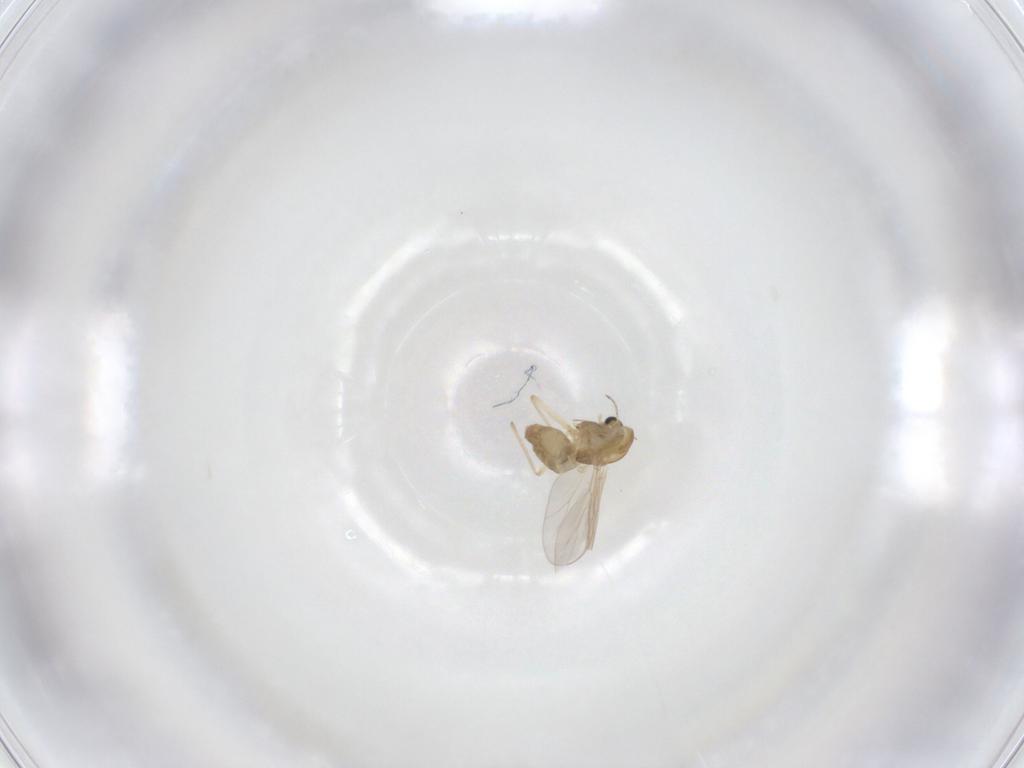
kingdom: Animalia
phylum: Arthropoda
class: Insecta
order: Diptera
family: Chironomidae
